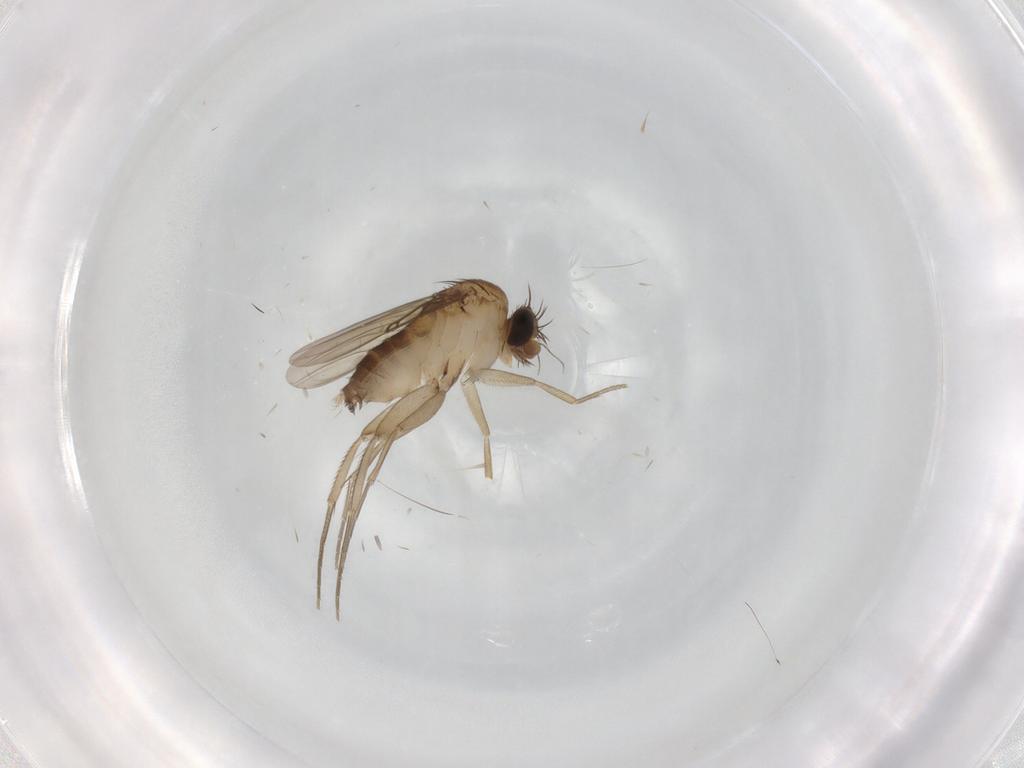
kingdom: Animalia
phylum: Arthropoda
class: Insecta
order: Diptera
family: Phoridae
